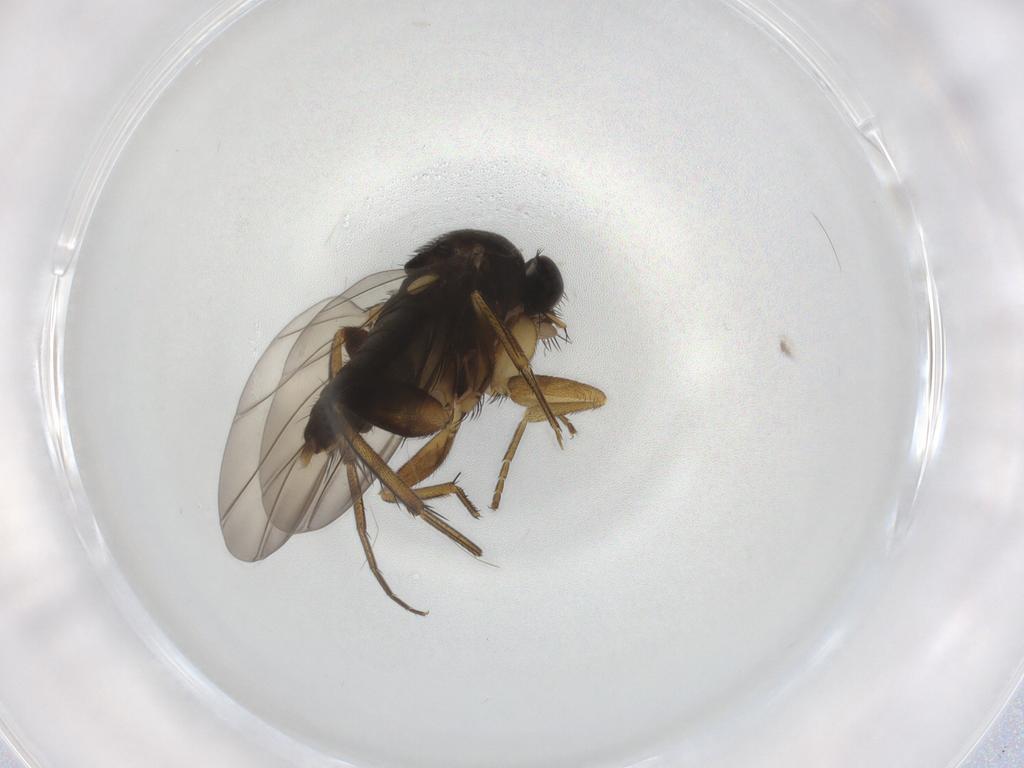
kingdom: Animalia
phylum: Arthropoda
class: Insecta
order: Diptera
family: Phoridae
